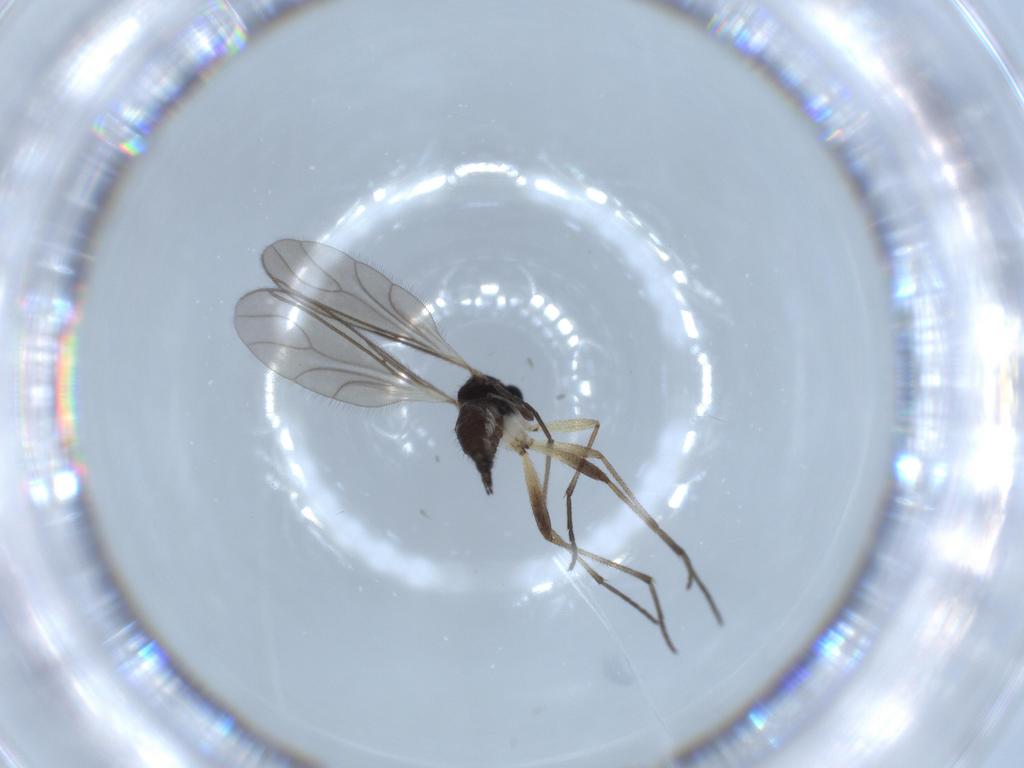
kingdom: Animalia
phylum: Arthropoda
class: Insecta
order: Diptera
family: Sciaridae
